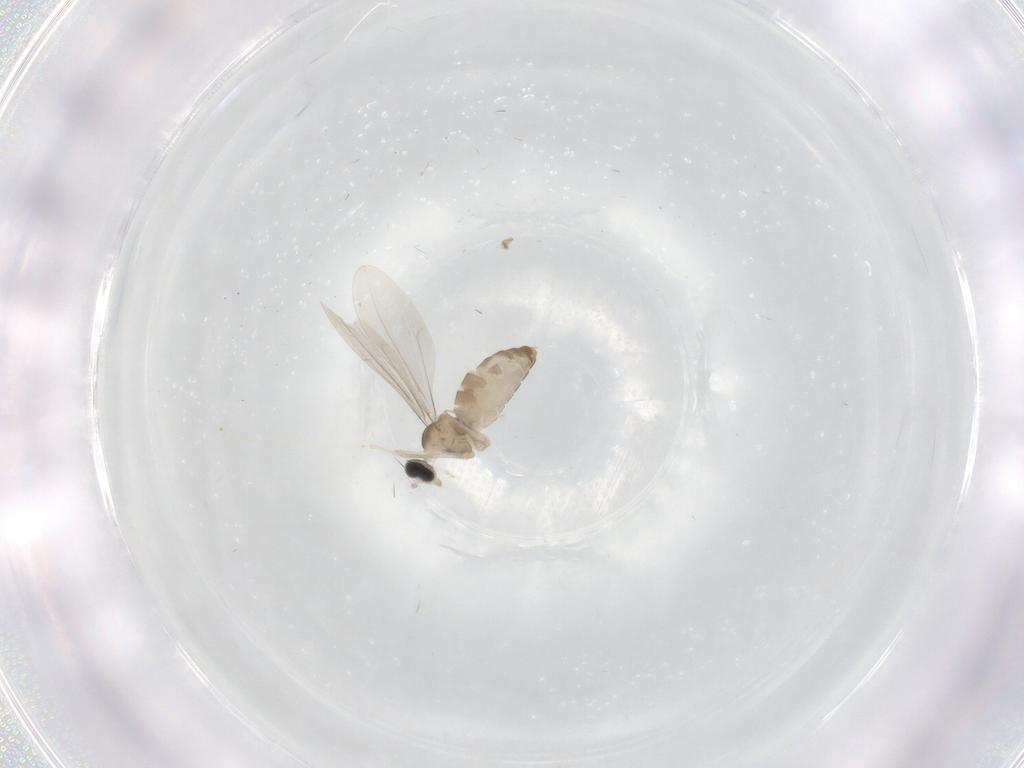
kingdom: Animalia
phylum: Arthropoda
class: Insecta
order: Diptera
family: Drosophilidae
